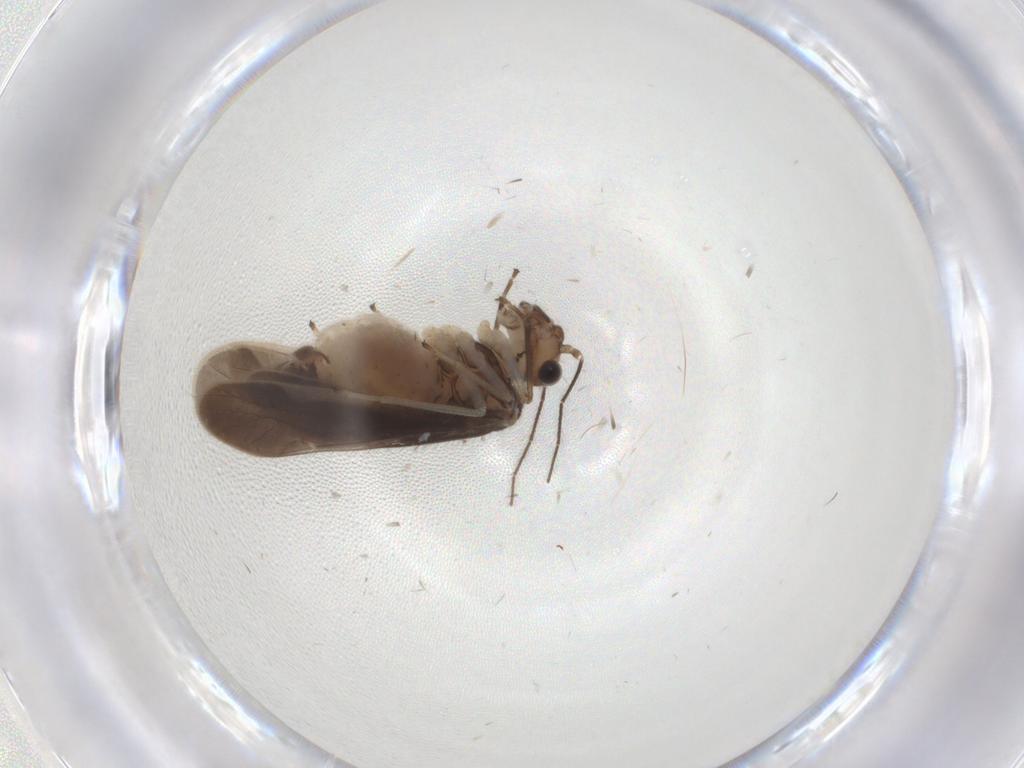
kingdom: Animalia
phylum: Arthropoda
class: Insecta
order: Psocodea
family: Caeciliusidae
